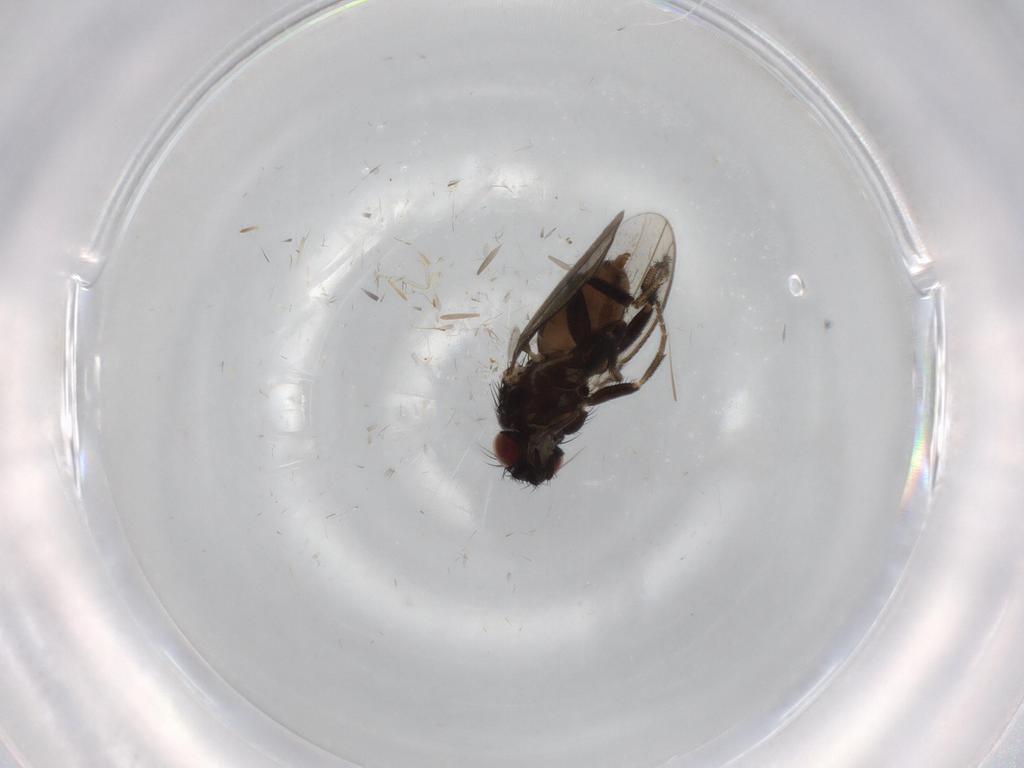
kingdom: Animalia
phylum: Arthropoda
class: Insecta
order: Diptera
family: Milichiidae
